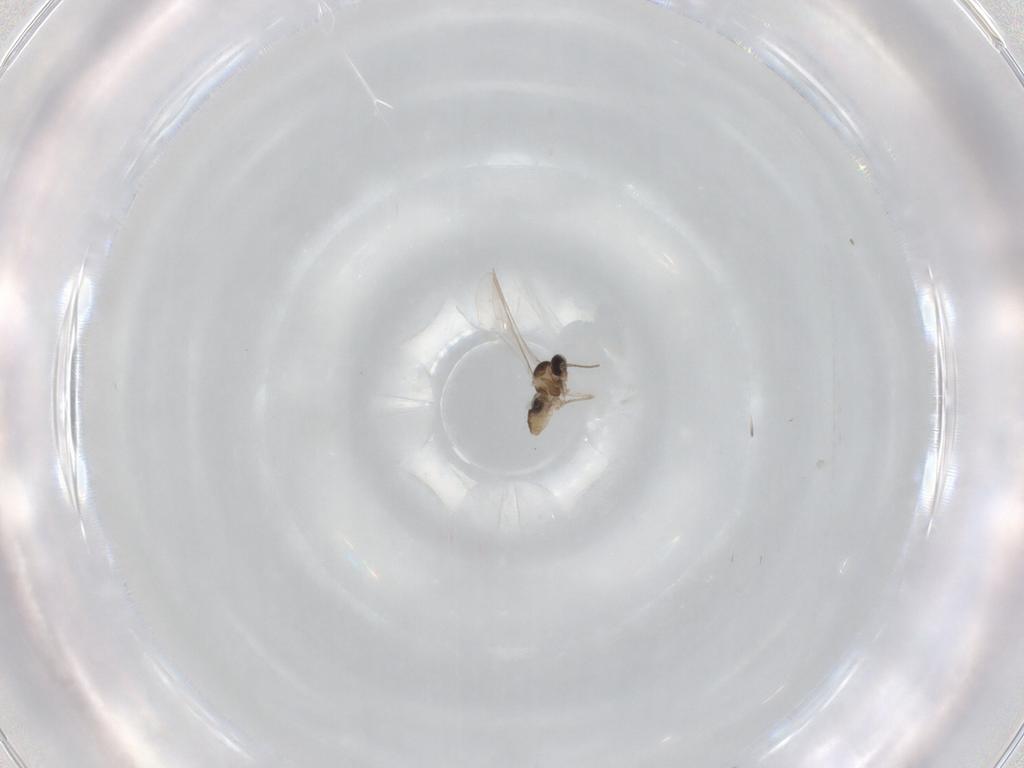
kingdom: Animalia
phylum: Arthropoda
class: Insecta
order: Diptera
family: Cecidomyiidae
